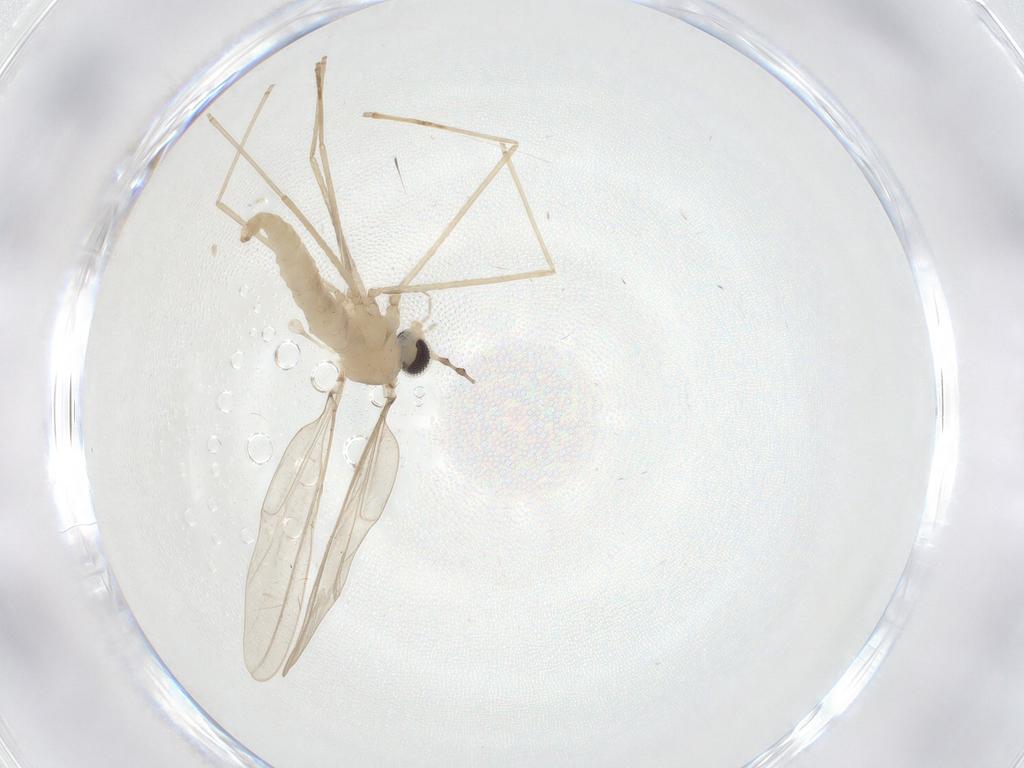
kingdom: Animalia
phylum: Arthropoda
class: Insecta
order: Diptera
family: Cecidomyiidae
